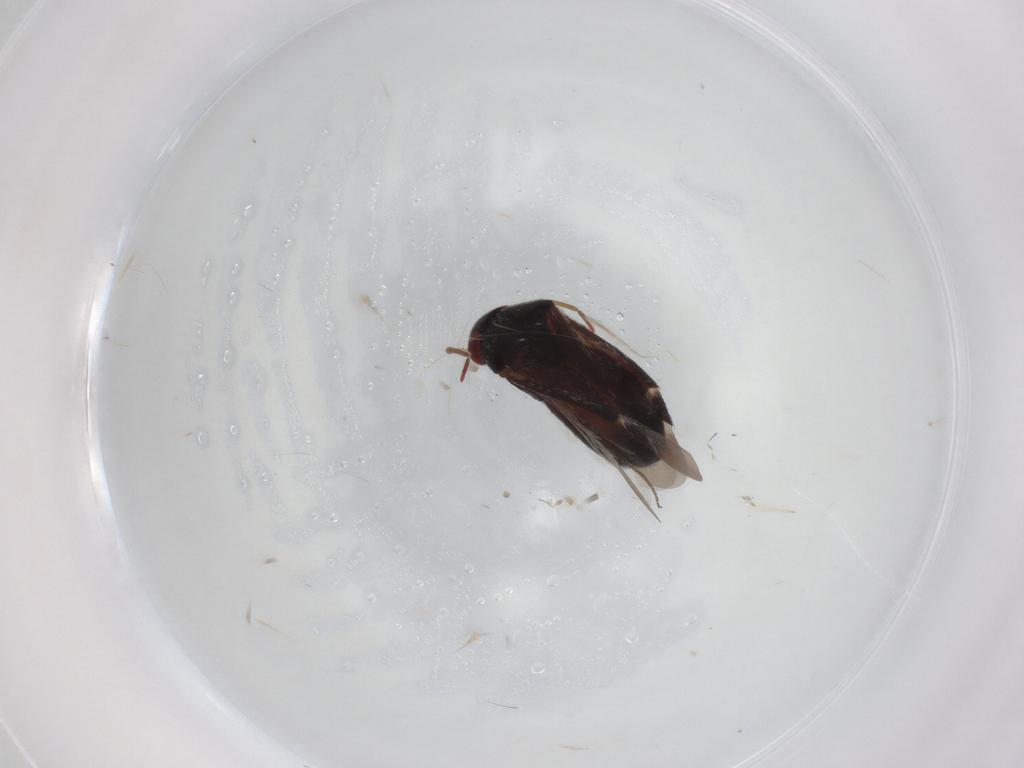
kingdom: Animalia
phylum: Arthropoda
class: Insecta
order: Hemiptera
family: Miridae
